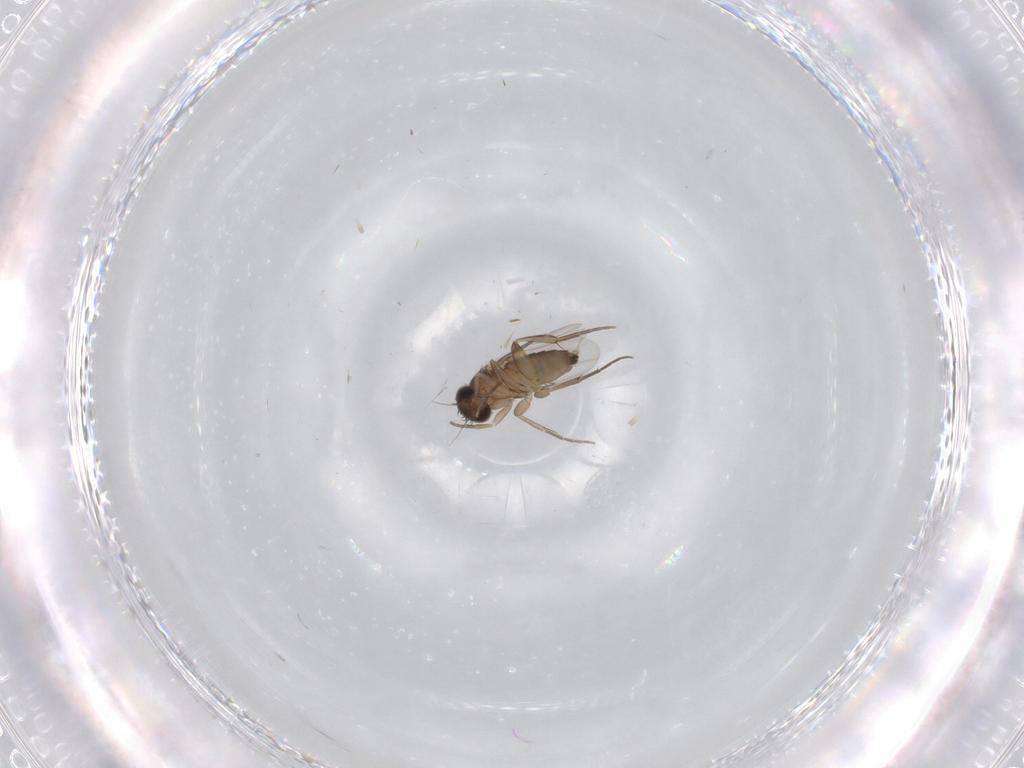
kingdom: Animalia
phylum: Arthropoda
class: Insecta
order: Diptera
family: Phoridae
